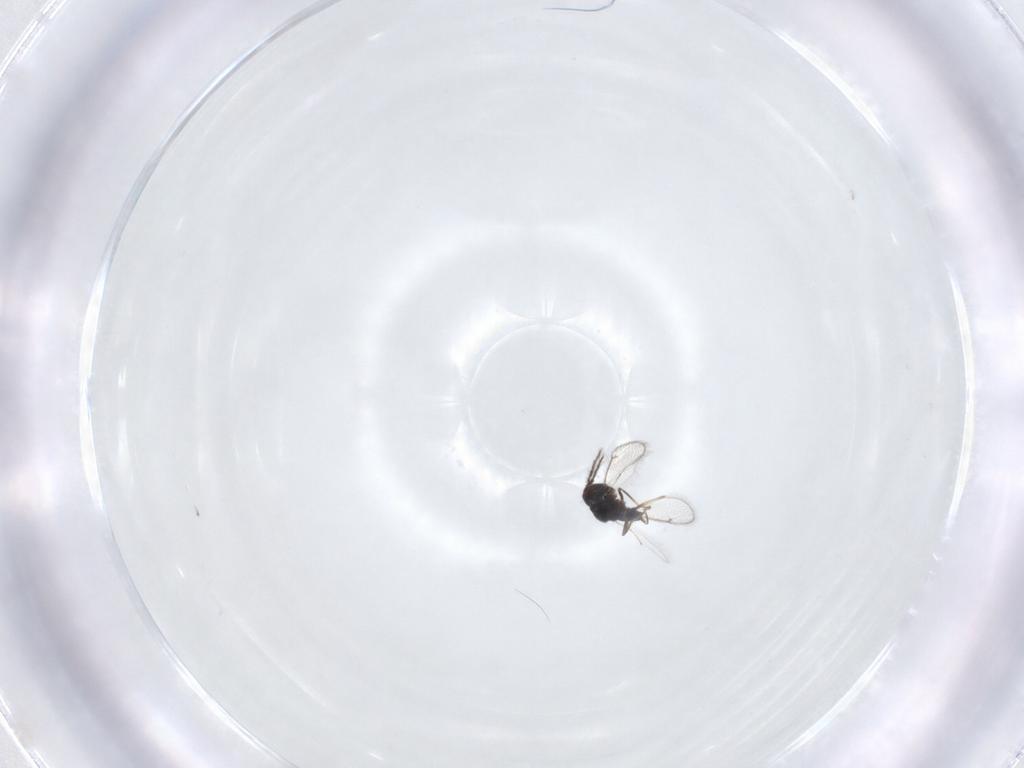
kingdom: Animalia
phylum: Arthropoda
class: Insecta
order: Hymenoptera
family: Eulophidae
